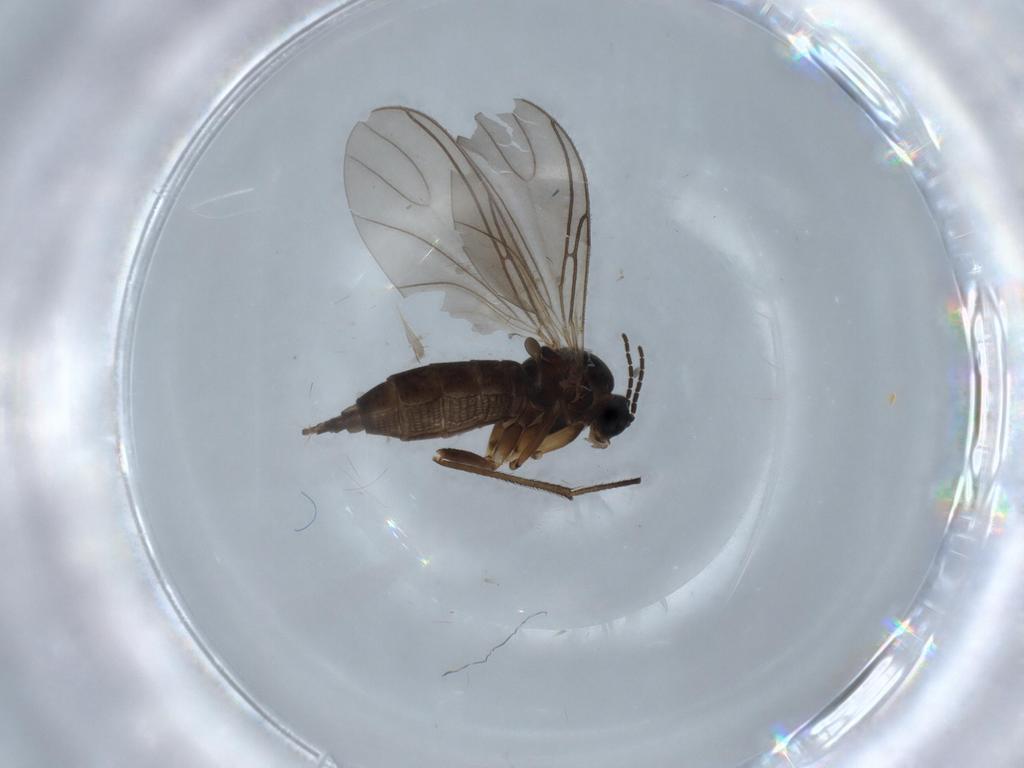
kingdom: Animalia
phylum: Arthropoda
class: Insecta
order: Diptera
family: Sciaridae
